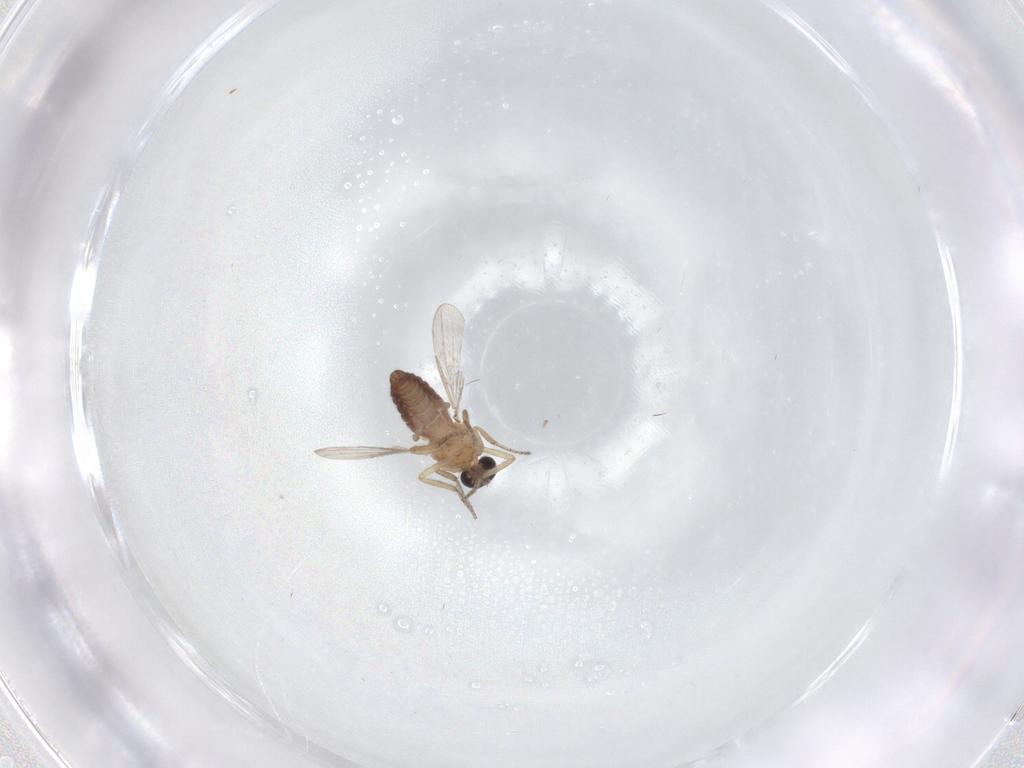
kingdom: Animalia
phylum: Arthropoda
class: Insecta
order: Diptera
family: Ceratopogonidae
